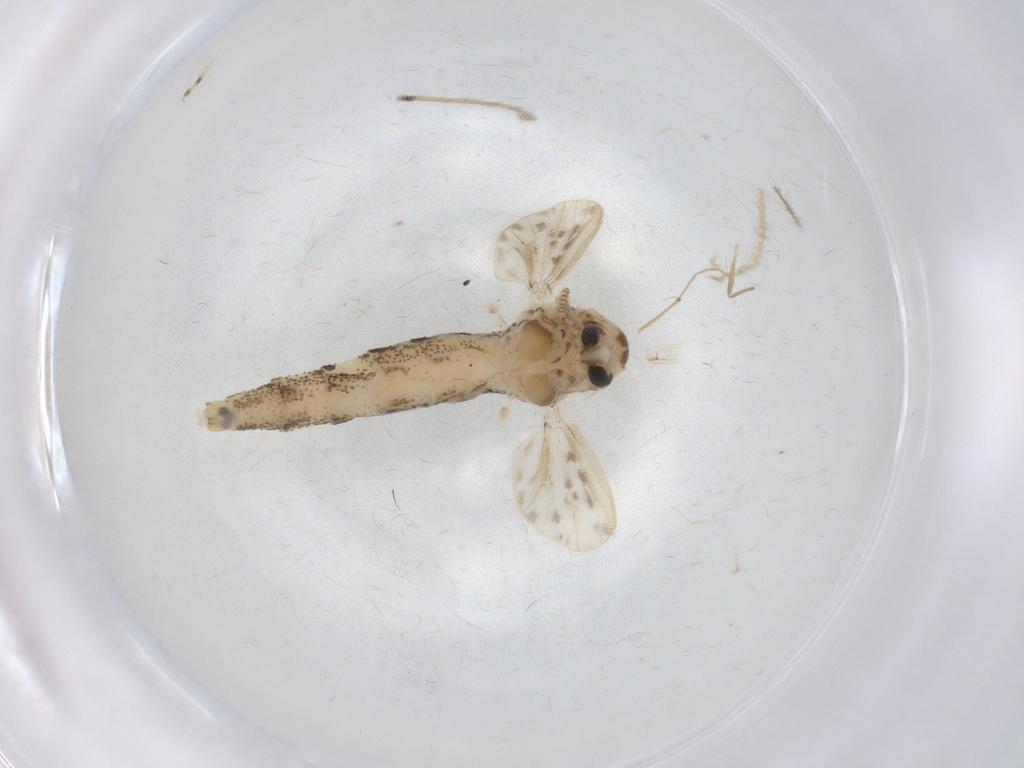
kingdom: Animalia
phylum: Arthropoda
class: Insecta
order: Diptera
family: Chaoboridae
